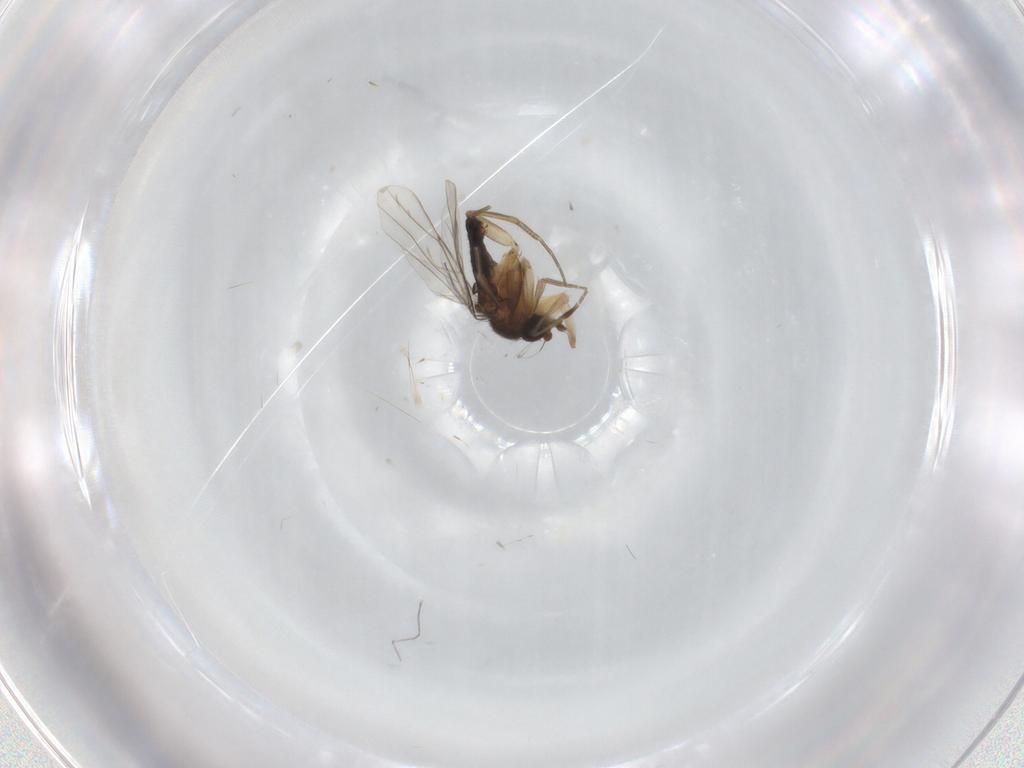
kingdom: Animalia
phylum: Arthropoda
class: Insecta
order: Diptera
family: Syrphidae
